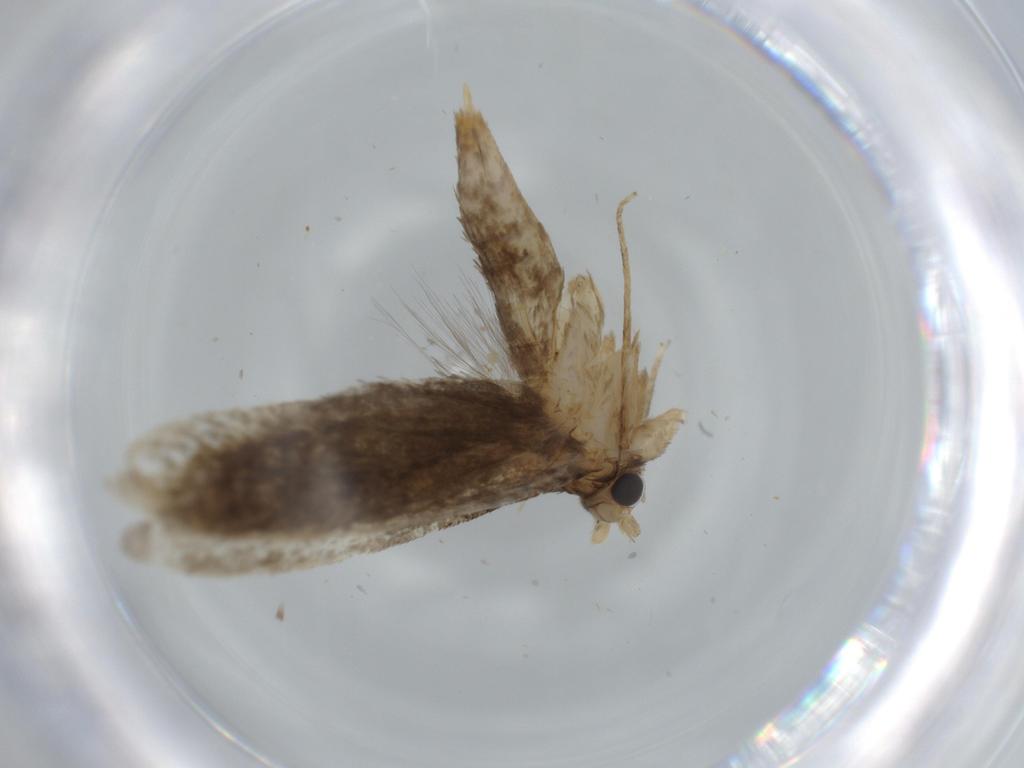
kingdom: Animalia
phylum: Arthropoda
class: Insecta
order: Lepidoptera
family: Tineidae
